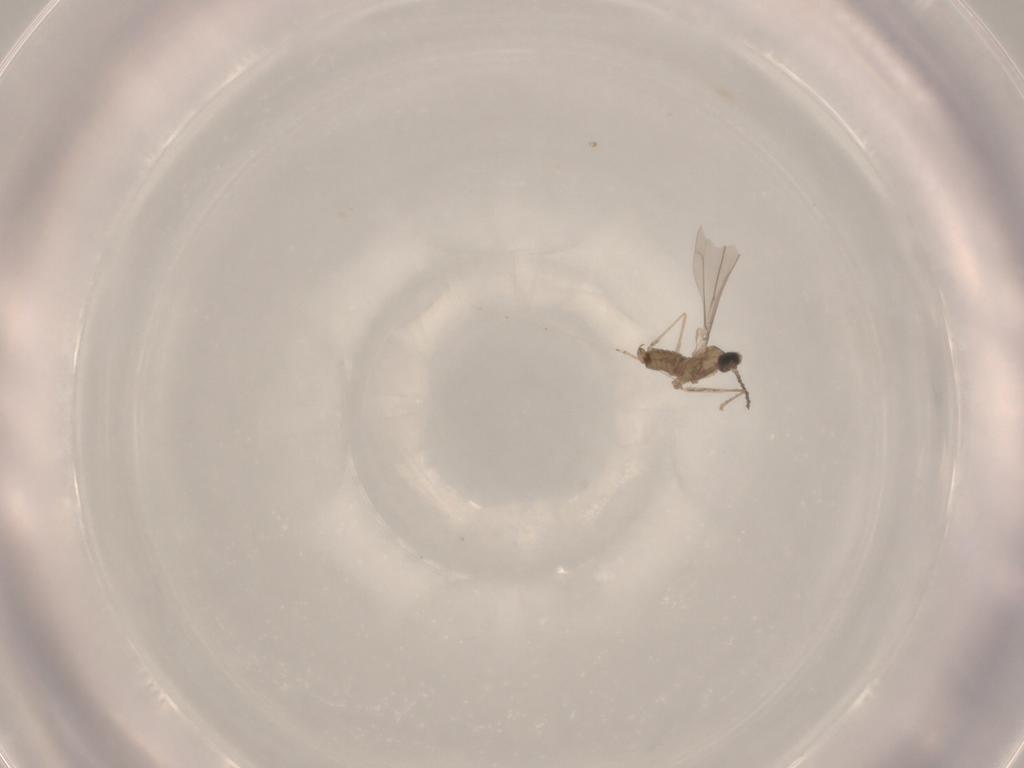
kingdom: Animalia
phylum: Arthropoda
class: Insecta
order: Diptera
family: Cecidomyiidae
